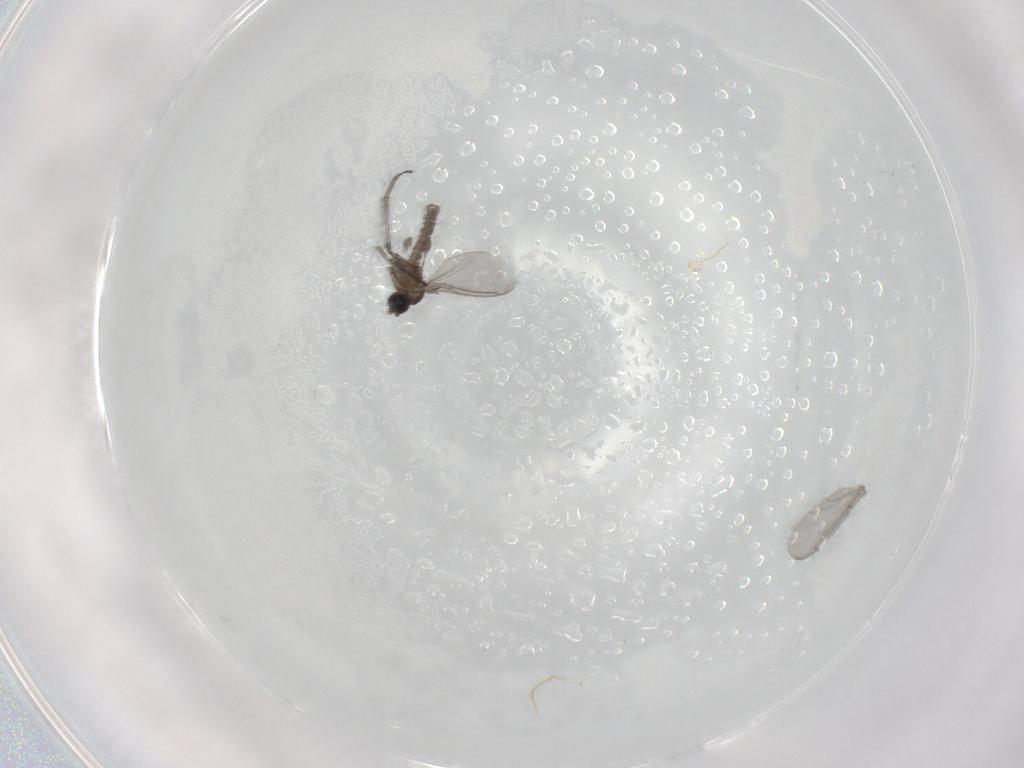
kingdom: Animalia
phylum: Arthropoda
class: Insecta
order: Diptera
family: Sciaridae
